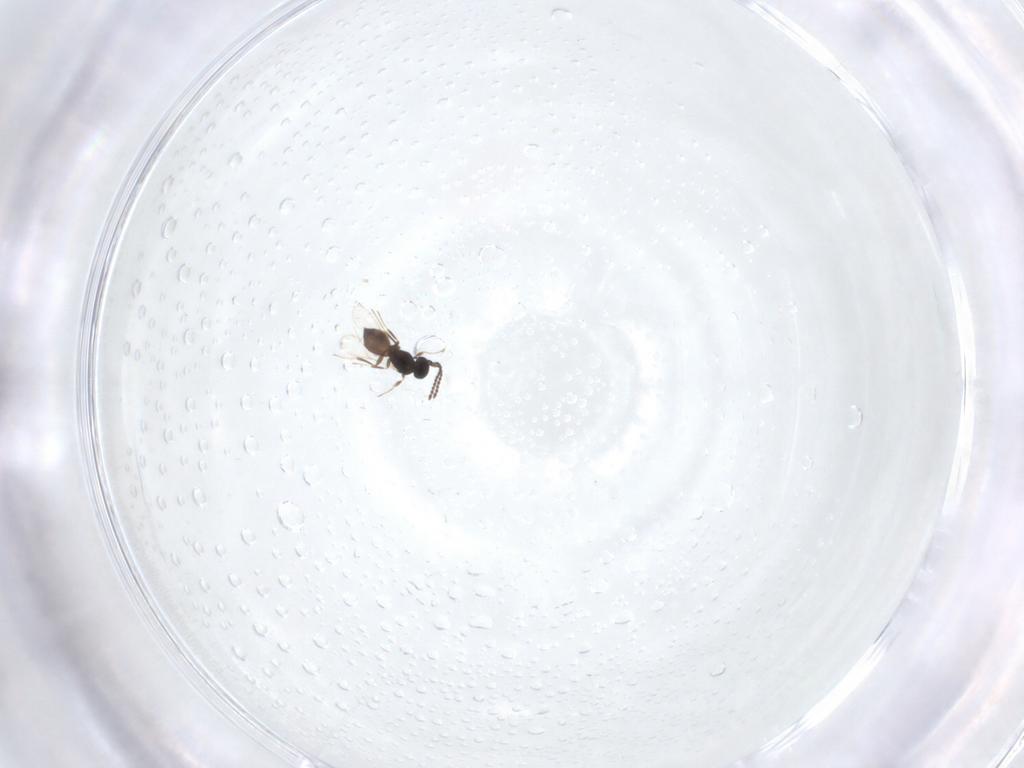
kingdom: Animalia
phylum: Arthropoda
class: Insecta
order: Hymenoptera
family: Scelionidae
